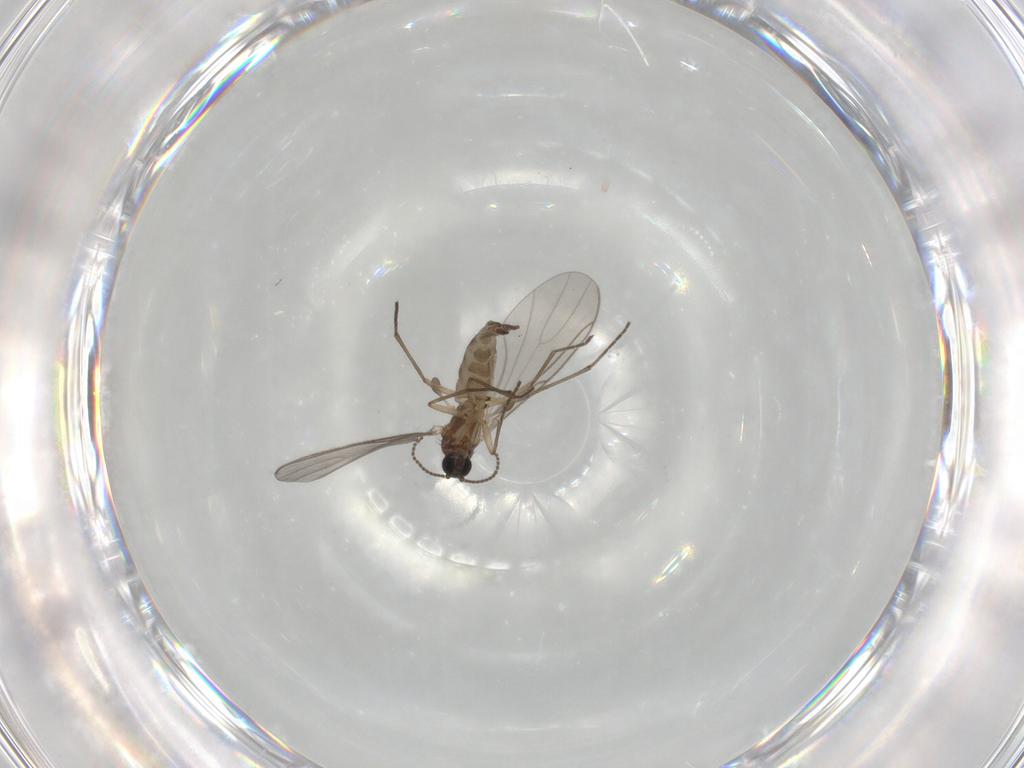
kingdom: Animalia
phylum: Arthropoda
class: Insecta
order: Diptera
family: Sciaridae
